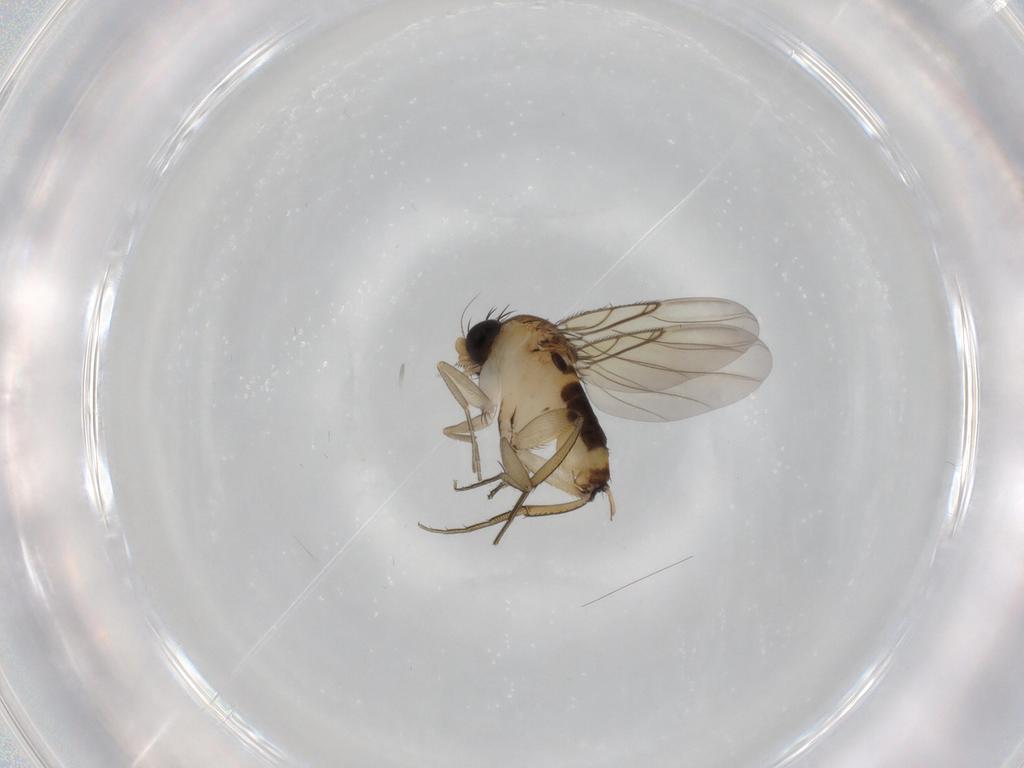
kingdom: Animalia
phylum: Arthropoda
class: Insecta
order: Diptera
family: Phoridae
